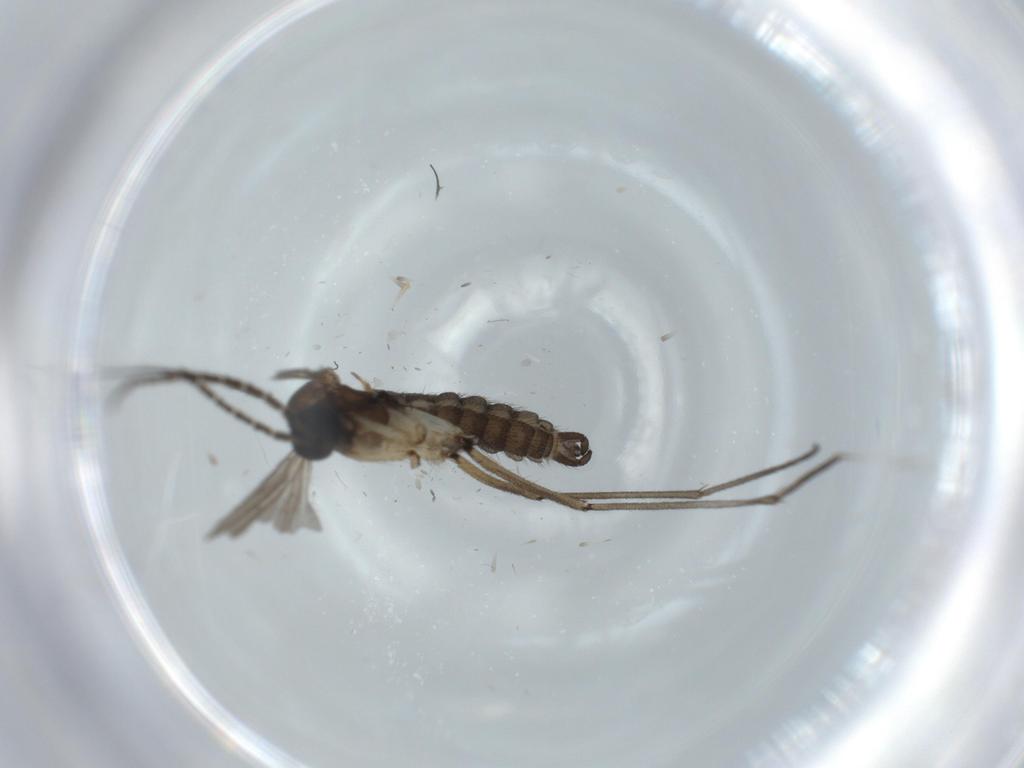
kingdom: Animalia
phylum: Arthropoda
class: Insecta
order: Diptera
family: Sciaridae
